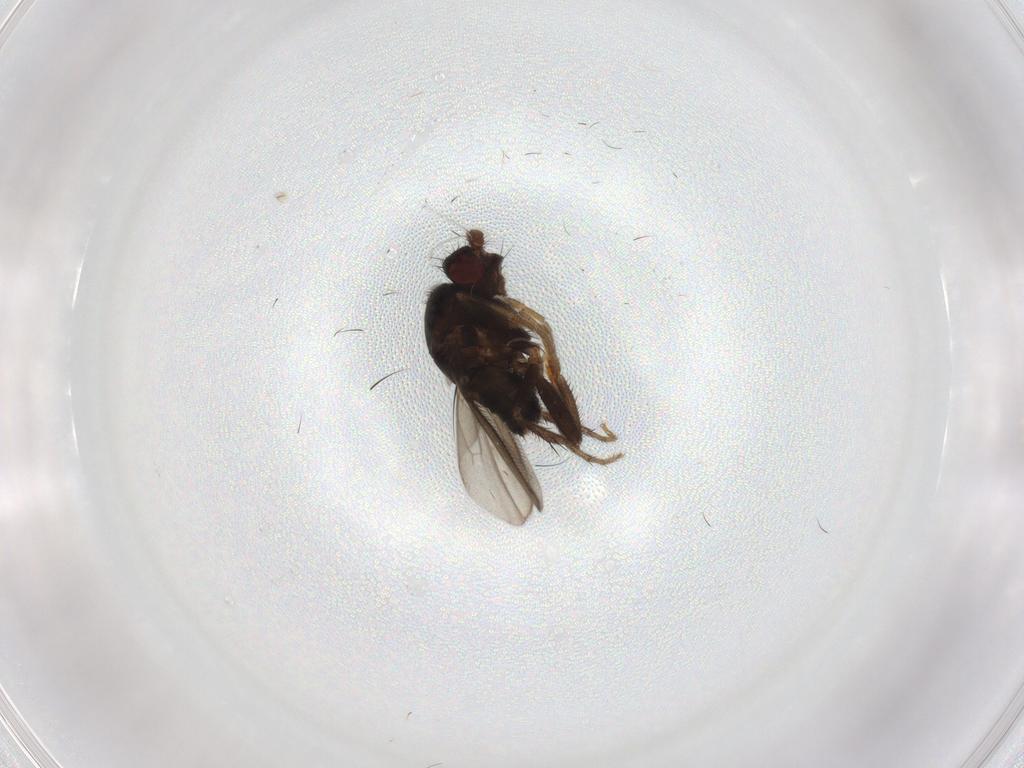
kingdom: Animalia
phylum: Arthropoda
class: Insecta
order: Diptera
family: Sphaeroceridae
